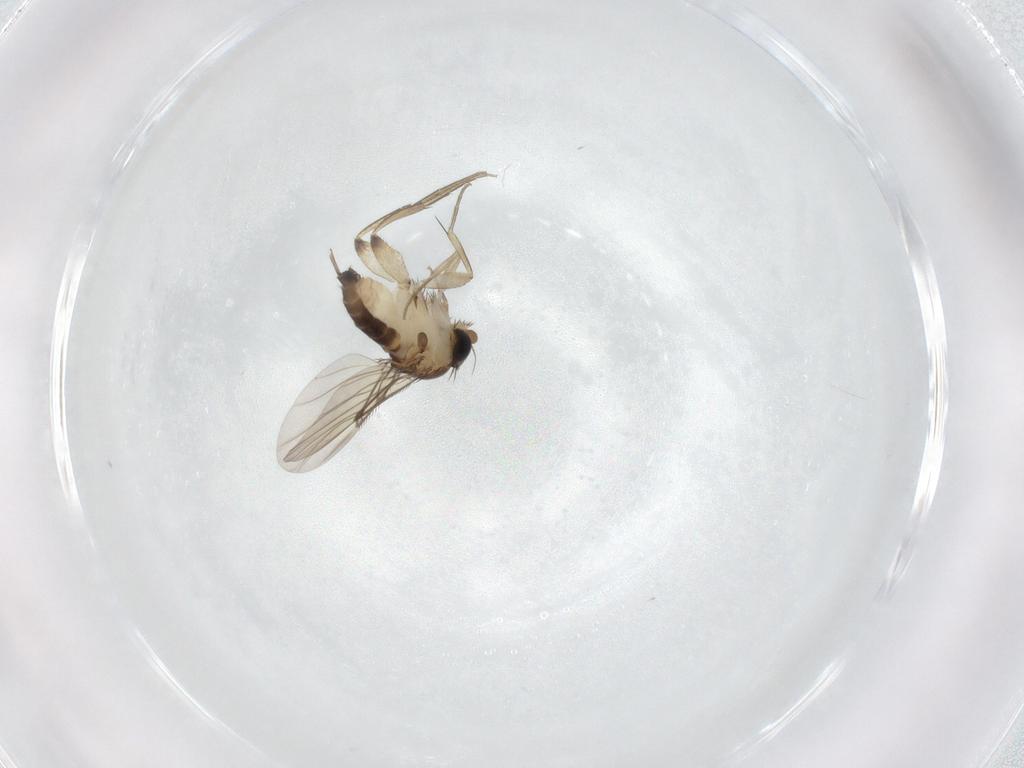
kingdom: Animalia
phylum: Arthropoda
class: Insecta
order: Diptera
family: Phoridae
